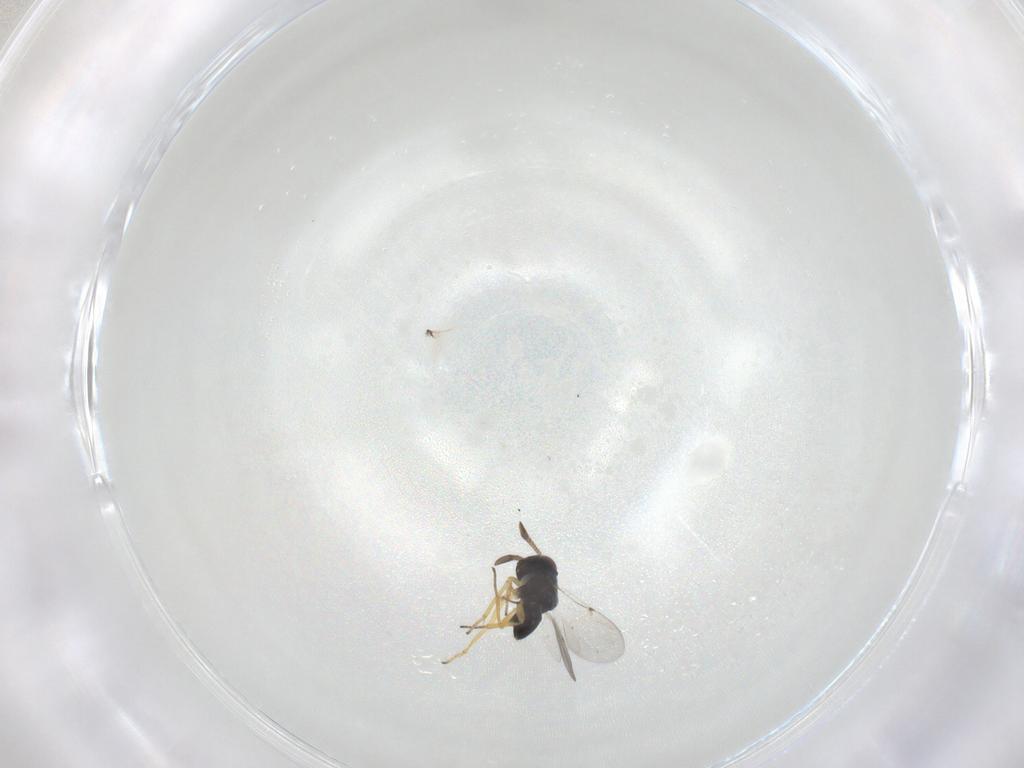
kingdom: Animalia
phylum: Arthropoda
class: Insecta
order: Hymenoptera
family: Encyrtidae
